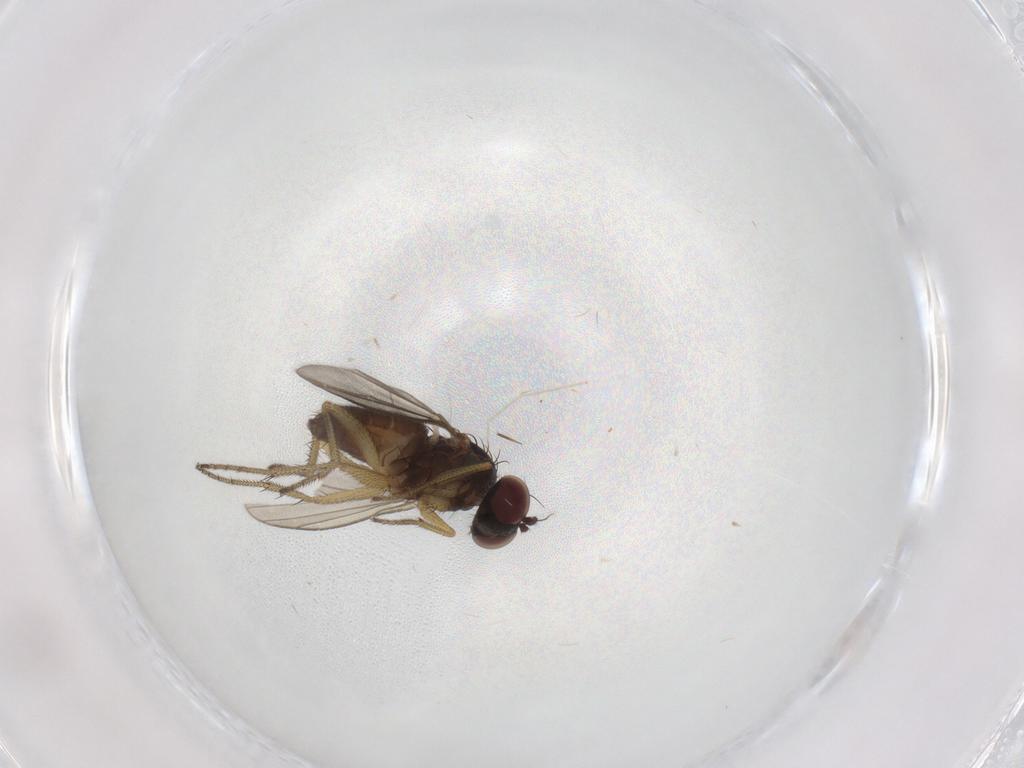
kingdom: Animalia
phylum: Arthropoda
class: Insecta
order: Diptera
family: Dolichopodidae
